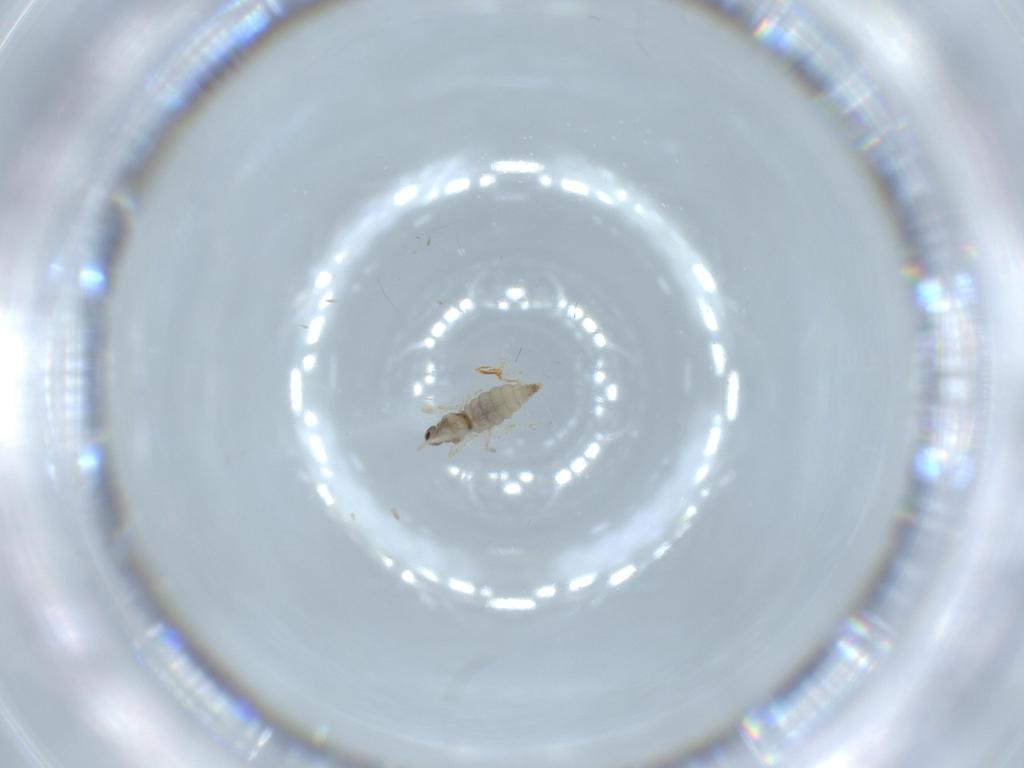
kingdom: Animalia
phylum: Arthropoda
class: Insecta
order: Diptera
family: Cecidomyiidae
